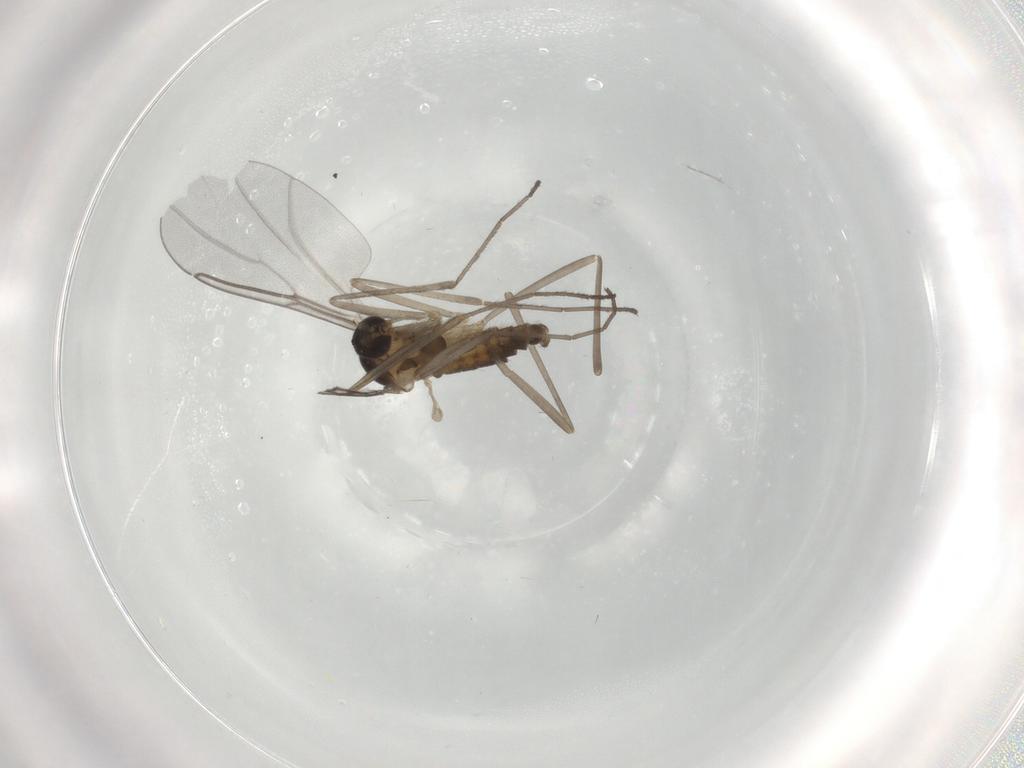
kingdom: Animalia
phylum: Arthropoda
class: Insecta
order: Diptera
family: Cecidomyiidae
